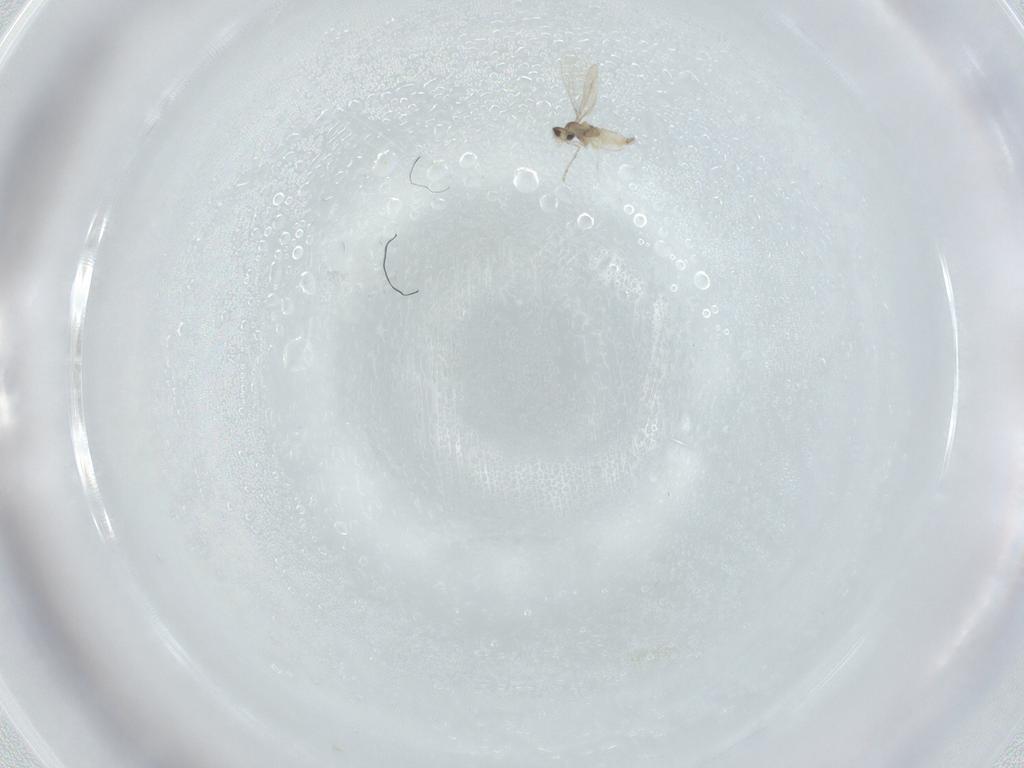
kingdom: Animalia
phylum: Arthropoda
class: Insecta
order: Diptera
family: Cecidomyiidae
